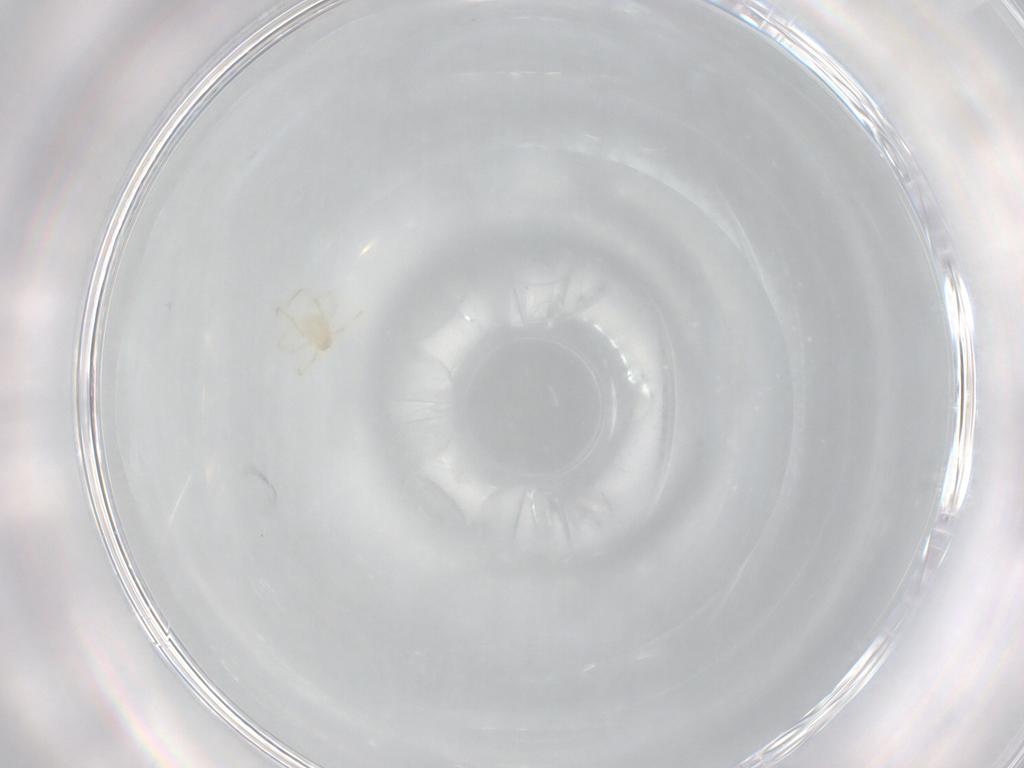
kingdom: Animalia
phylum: Arthropoda
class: Arachnida
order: Trombidiformes
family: Erythraeidae
